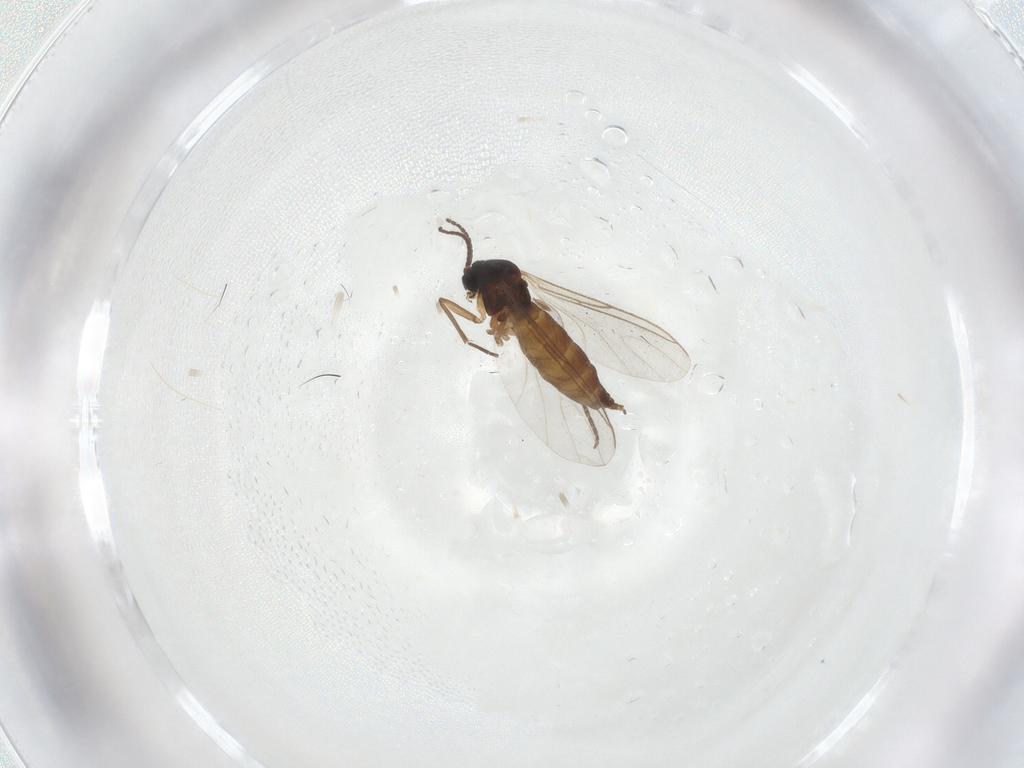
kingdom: Animalia
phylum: Arthropoda
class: Insecta
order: Diptera
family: Sciaridae
